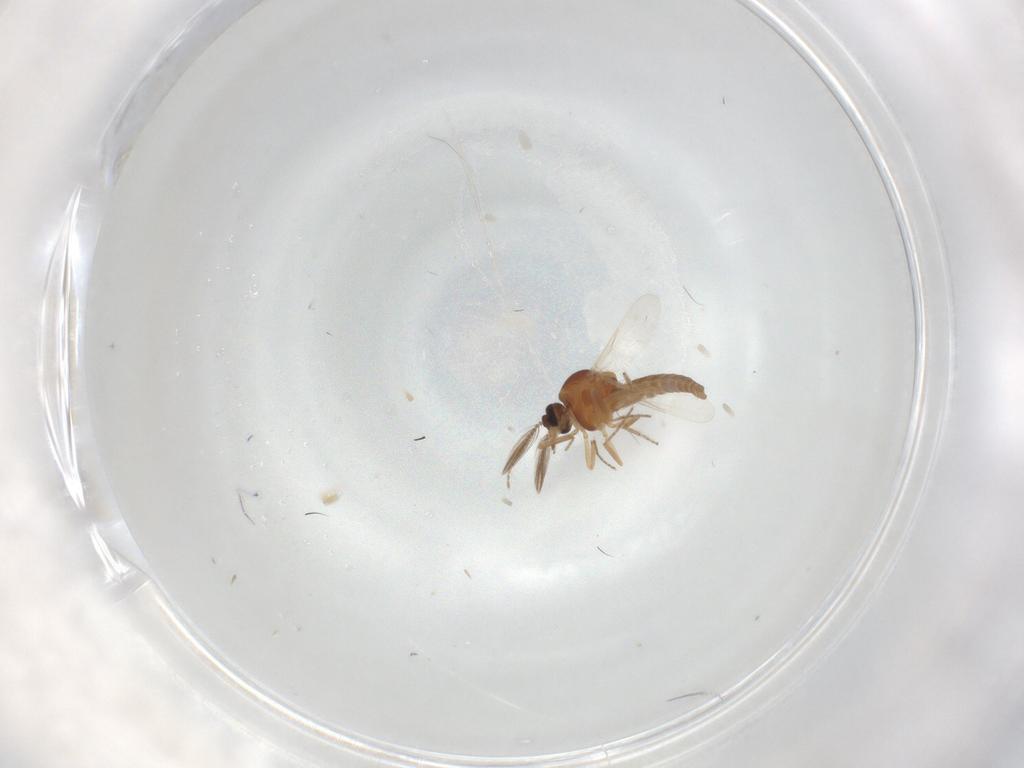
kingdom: Animalia
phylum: Arthropoda
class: Insecta
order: Diptera
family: Ceratopogonidae
